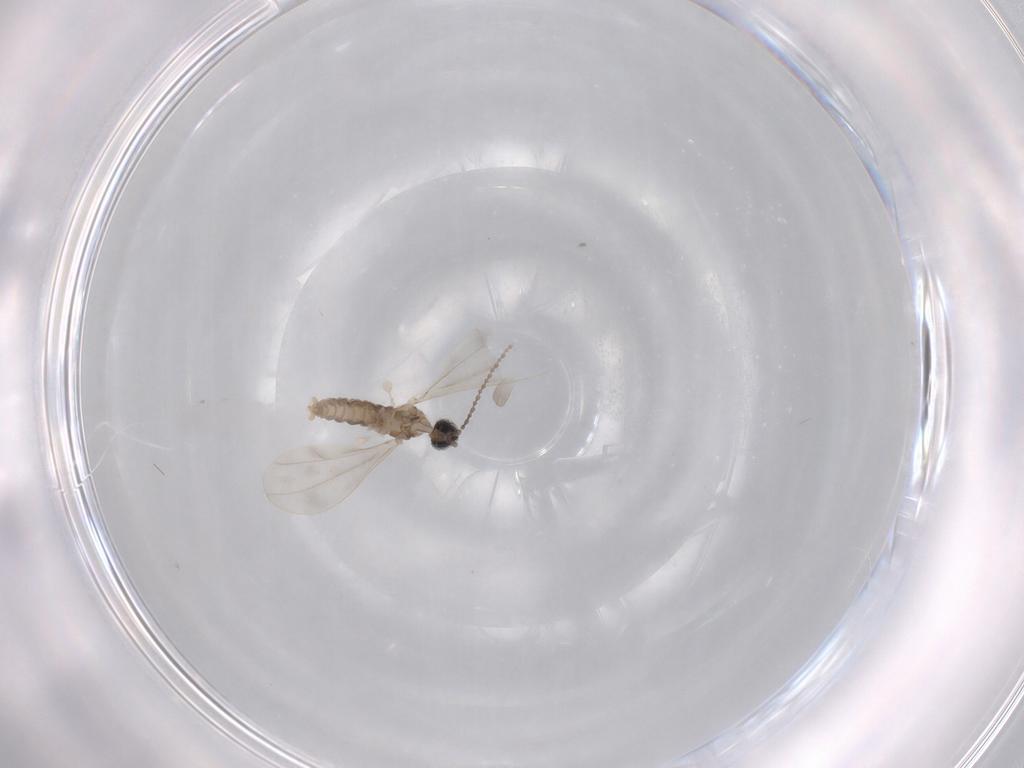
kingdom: Animalia
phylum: Arthropoda
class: Insecta
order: Diptera
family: Cecidomyiidae
